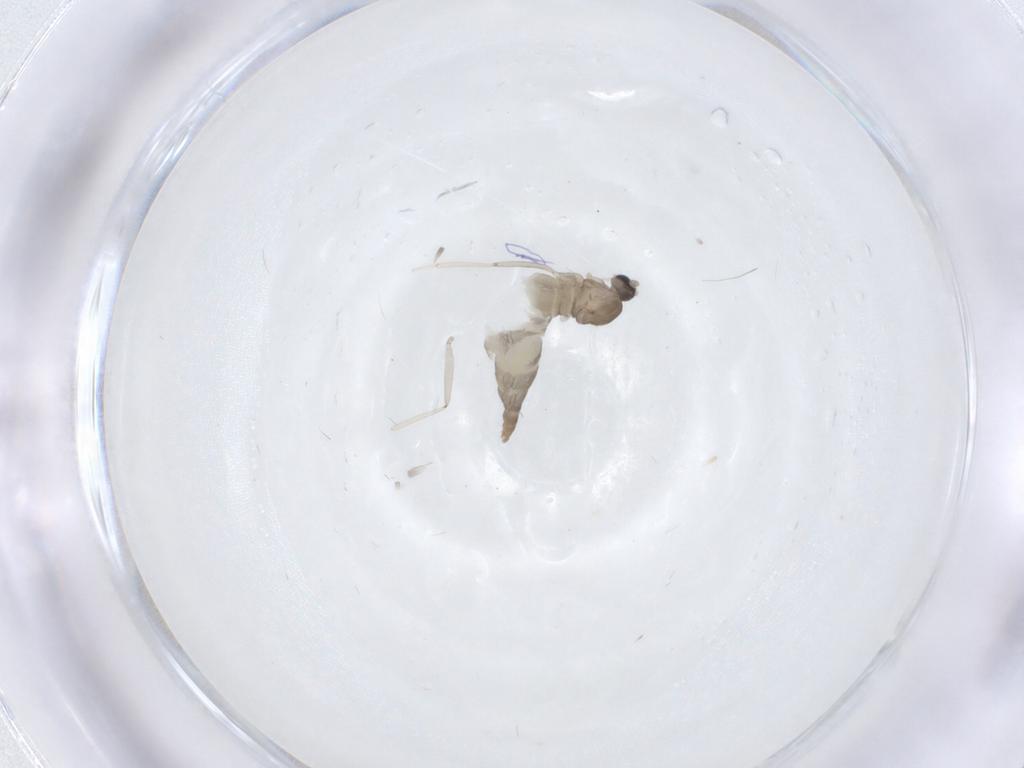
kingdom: Animalia
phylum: Arthropoda
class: Insecta
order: Diptera
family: Cecidomyiidae
